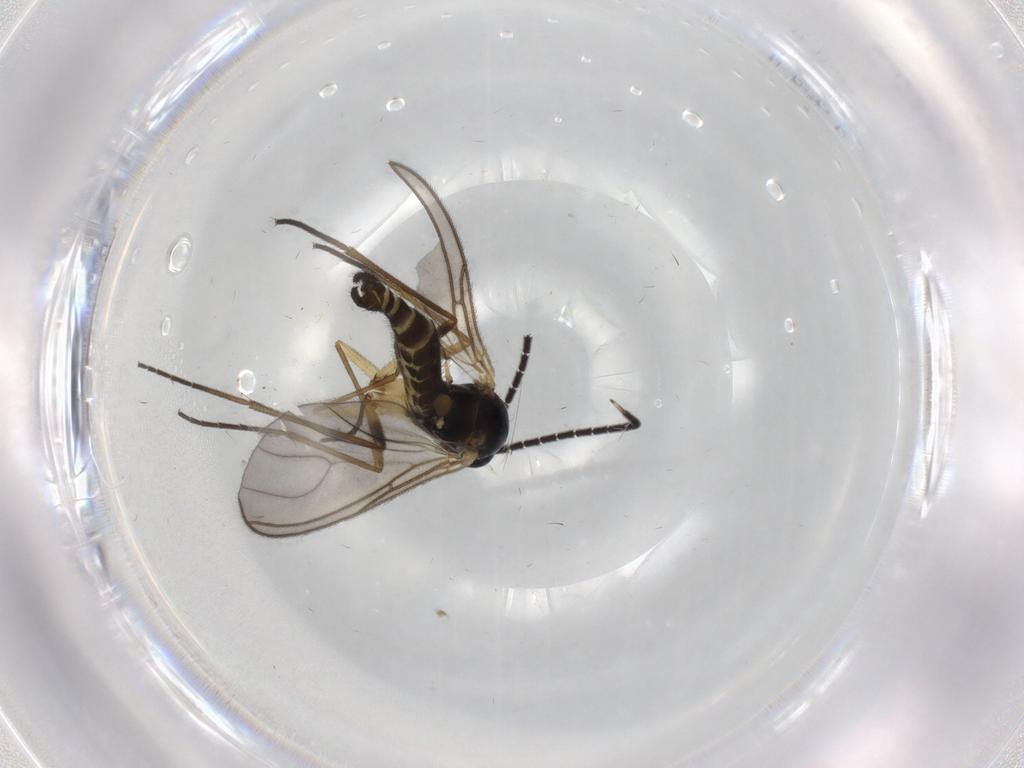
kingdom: Animalia
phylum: Arthropoda
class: Insecta
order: Diptera
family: Sciaridae
